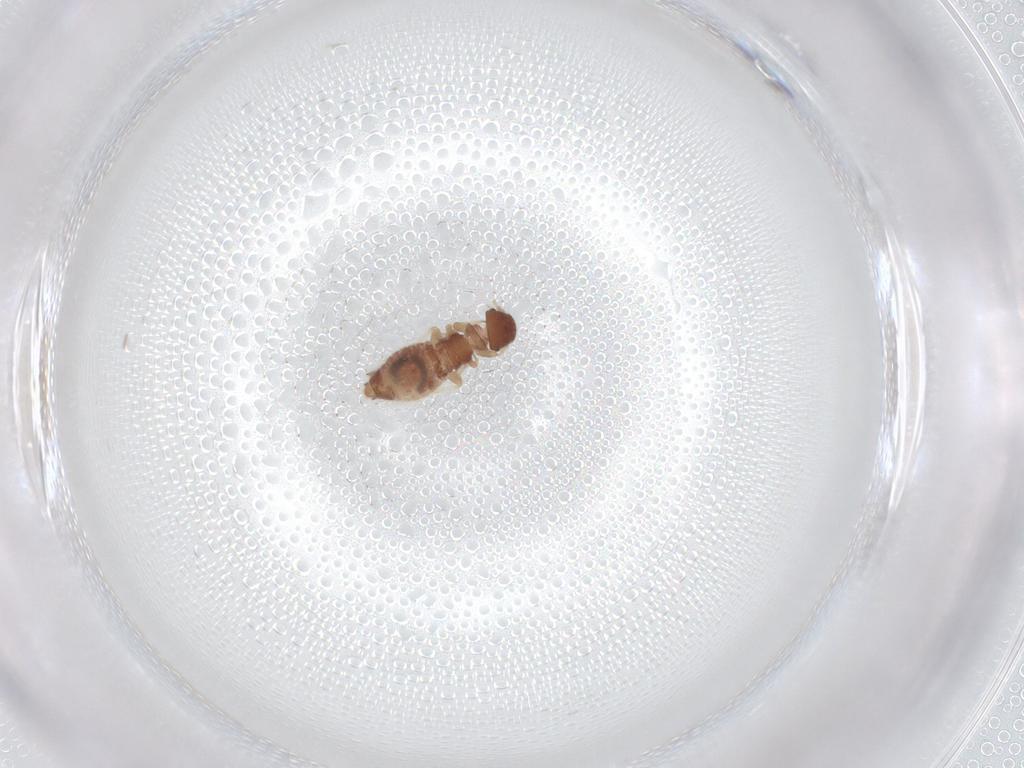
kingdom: Animalia
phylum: Arthropoda
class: Insecta
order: Psocodea
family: Archipsocidae
